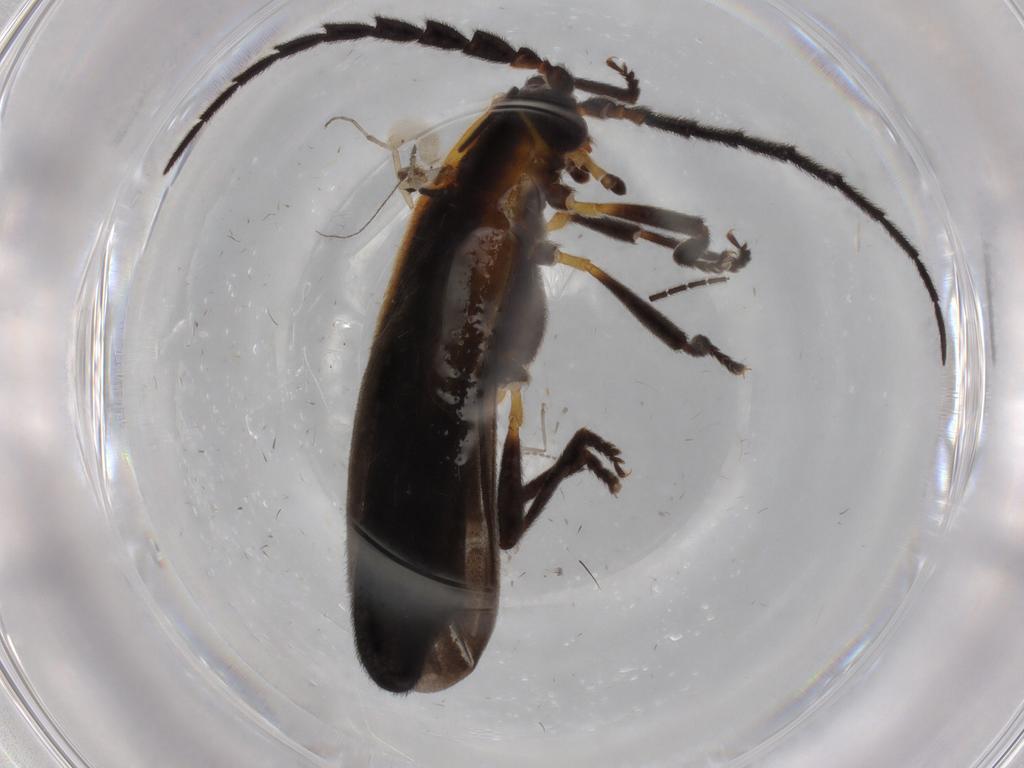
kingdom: Animalia
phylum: Arthropoda
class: Insecta
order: Coleoptera
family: Lycidae
